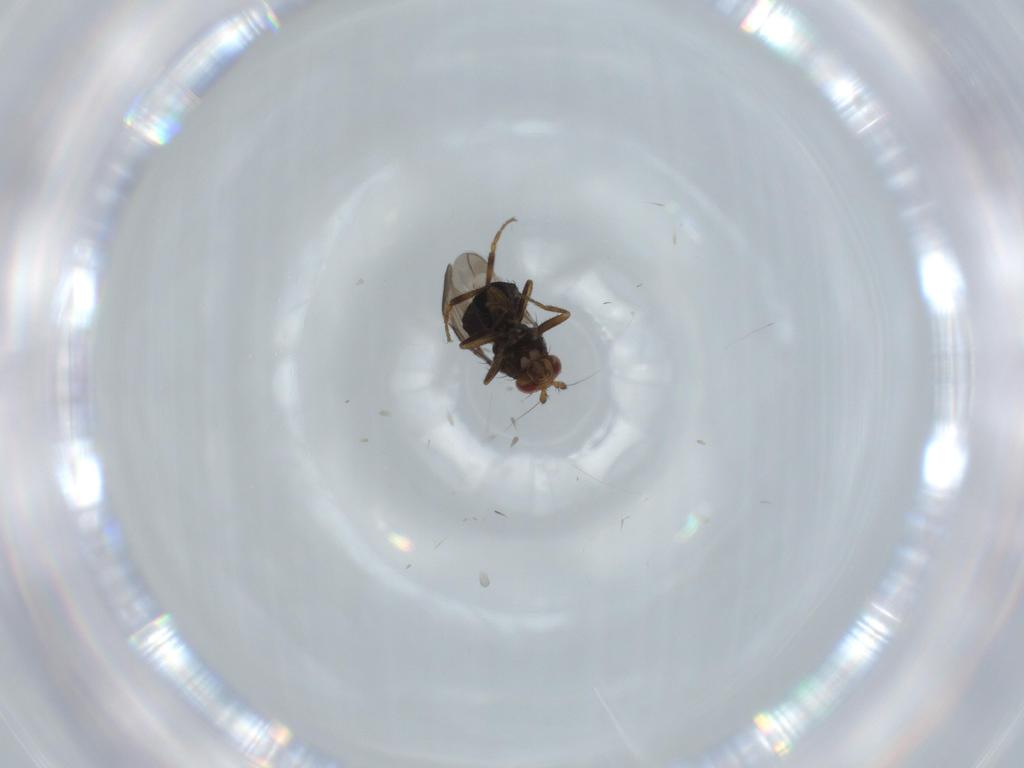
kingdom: Animalia
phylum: Arthropoda
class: Insecta
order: Diptera
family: Sphaeroceridae
